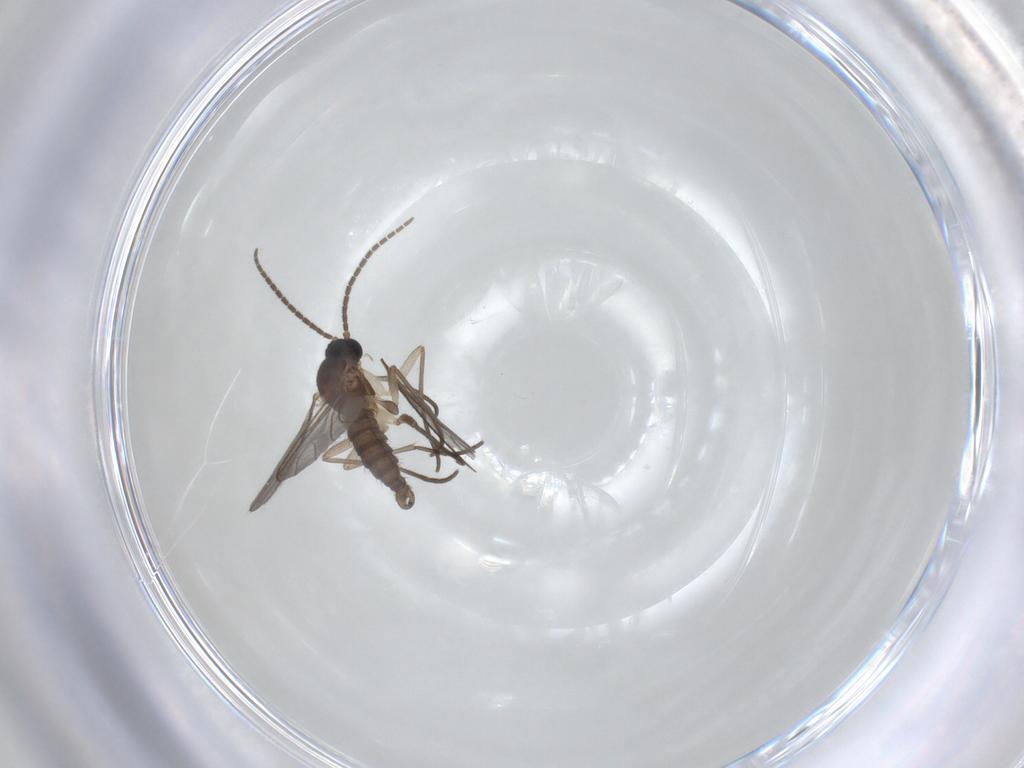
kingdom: Animalia
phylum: Arthropoda
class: Insecta
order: Diptera
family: Sciaridae
